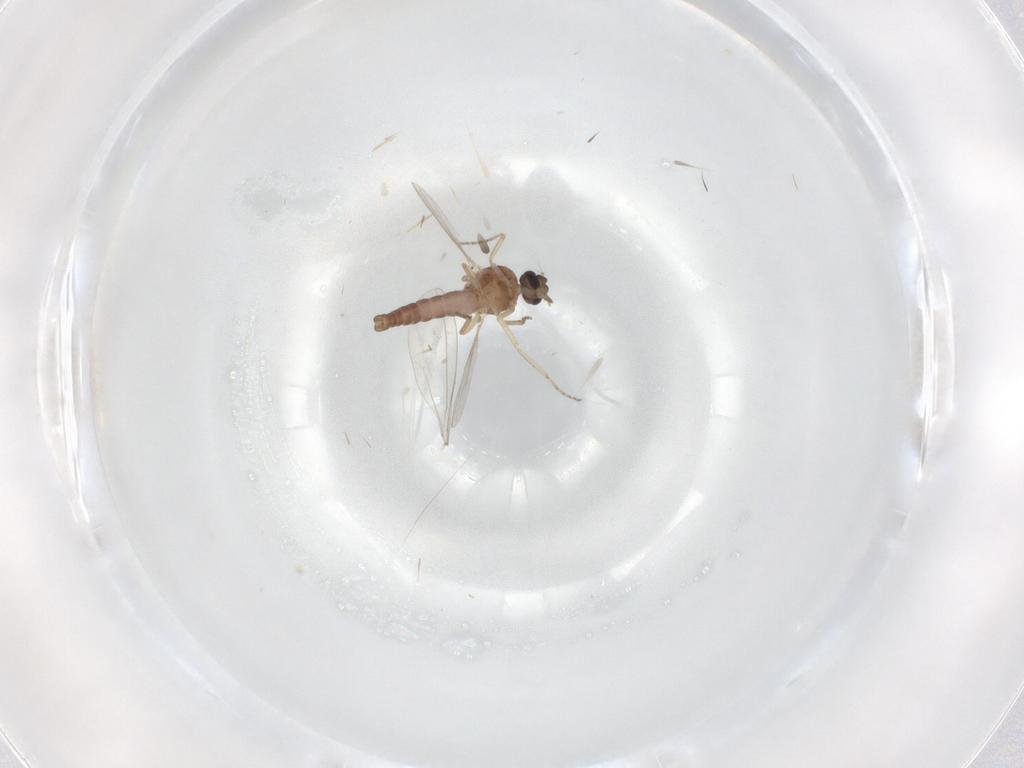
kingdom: Animalia
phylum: Arthropoda
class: Insecta
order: Diptera
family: Ceratopogonidae
